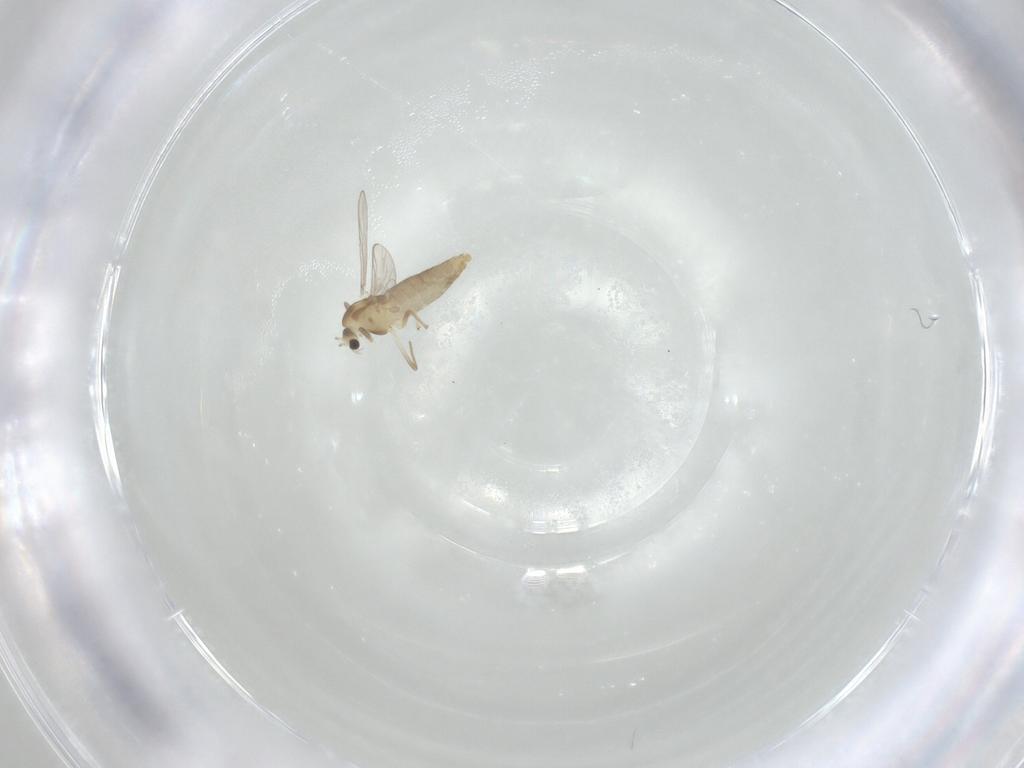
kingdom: Animalia
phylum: Arthropoda
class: Insecta
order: Diptera
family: Chironomidae
